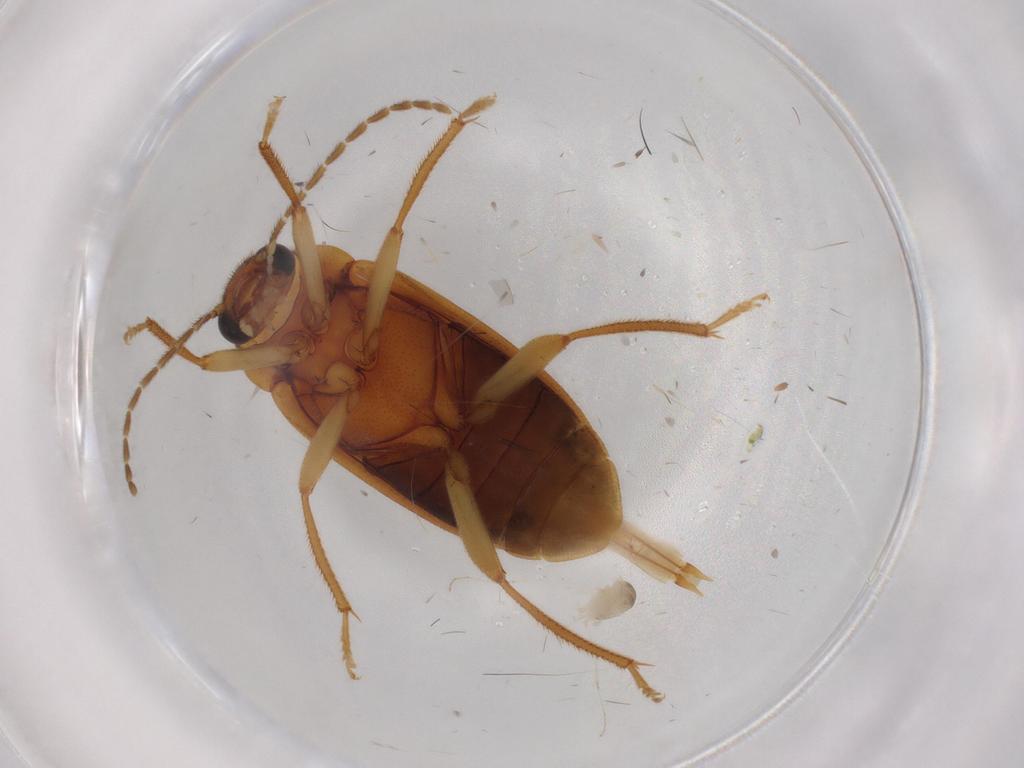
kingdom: Animalia
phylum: Arthropoda
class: Insecta
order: Coleoptera
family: Ptilodactylidae
